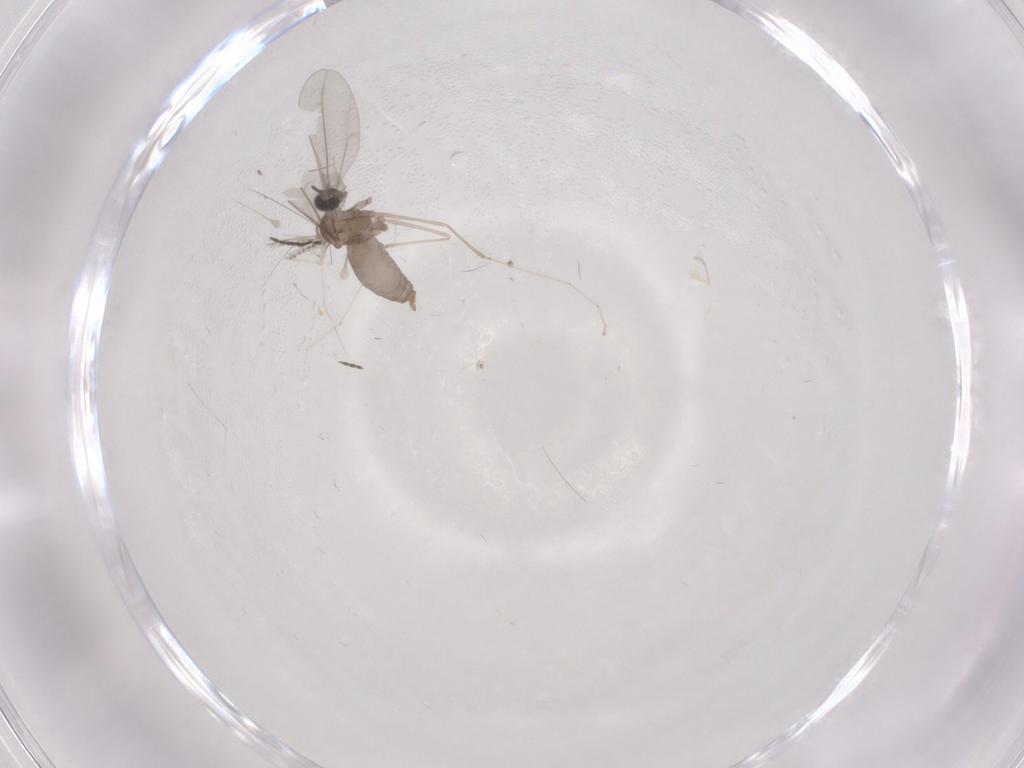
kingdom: Animalia
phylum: Arthropoda
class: Insecta
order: Diptera
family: Cecidomyiidae
